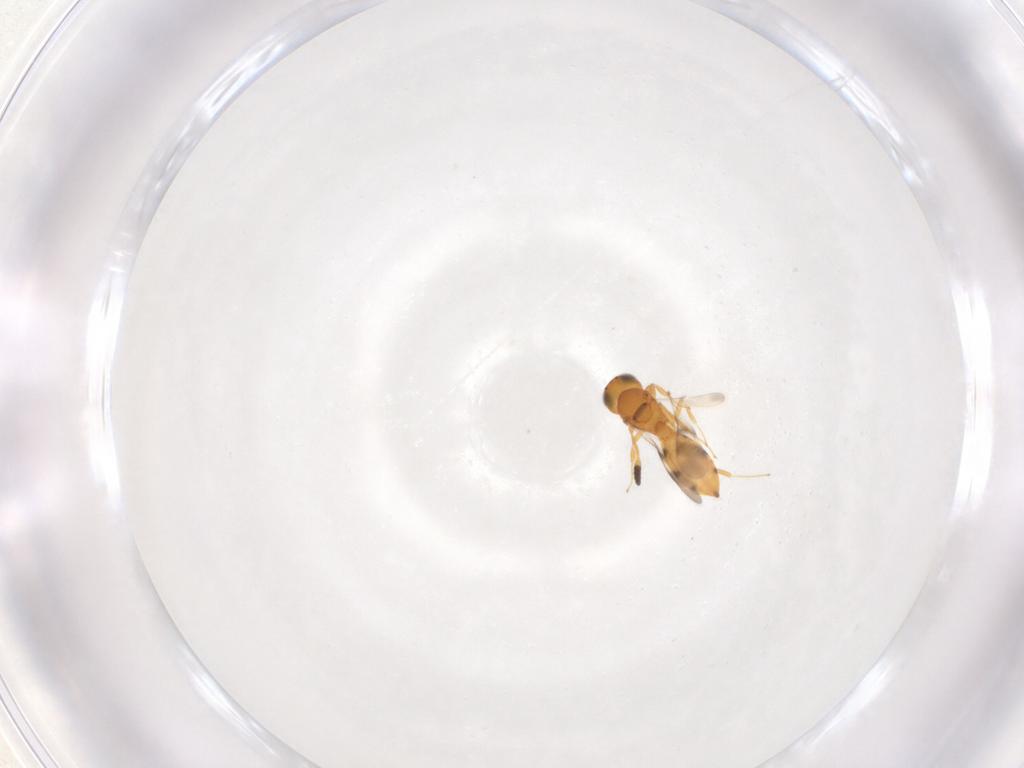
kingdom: Animalia
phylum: Arthropoda
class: Insecta
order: Hymenoptera
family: Scelionidae
